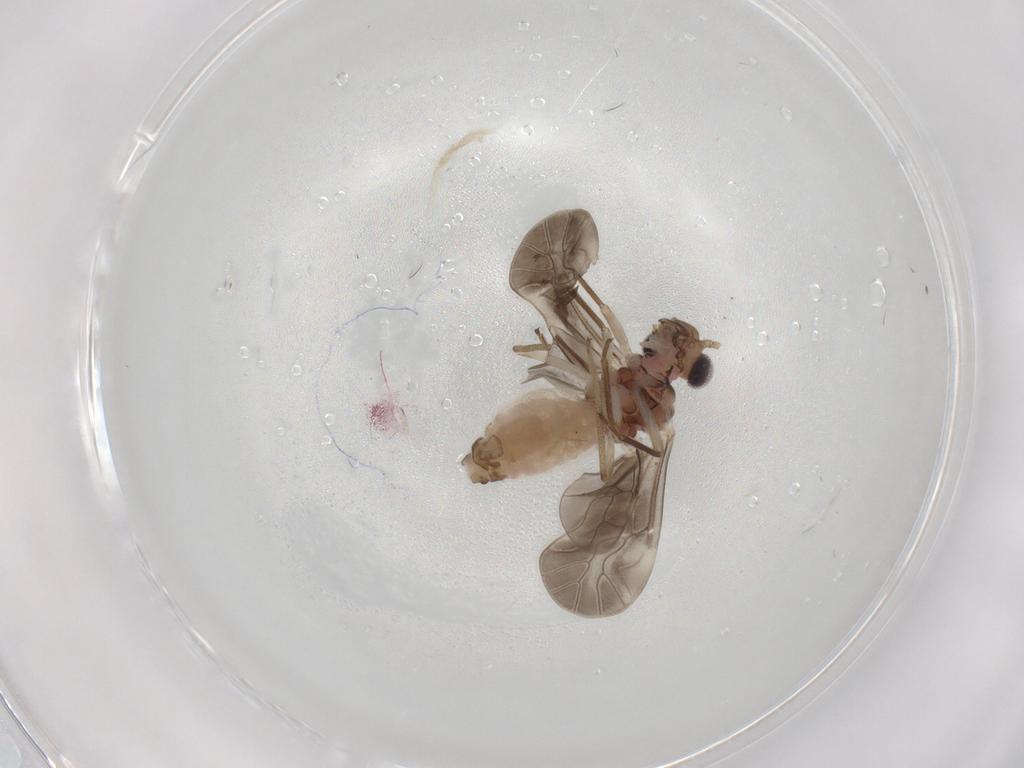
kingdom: Animalia
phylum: Arthropoda
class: Insecta
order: Psocodea
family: Caeciliusidae
